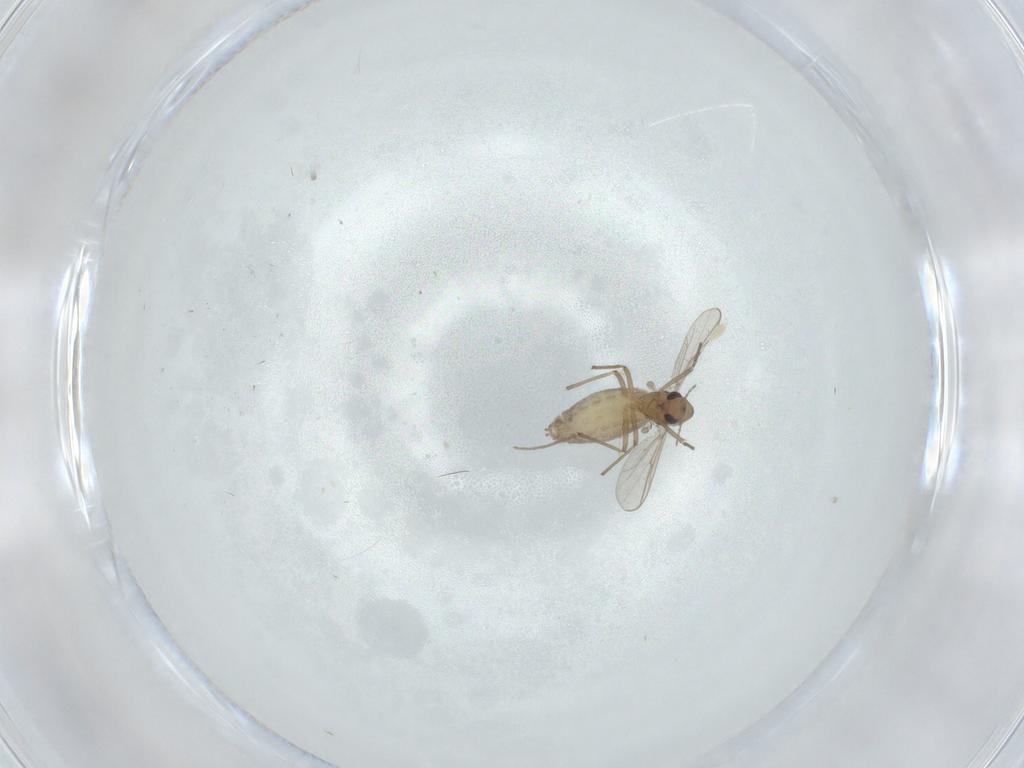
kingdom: Animalia
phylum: Arthropoda
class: Insecta
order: Diptera
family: Chironomidae
